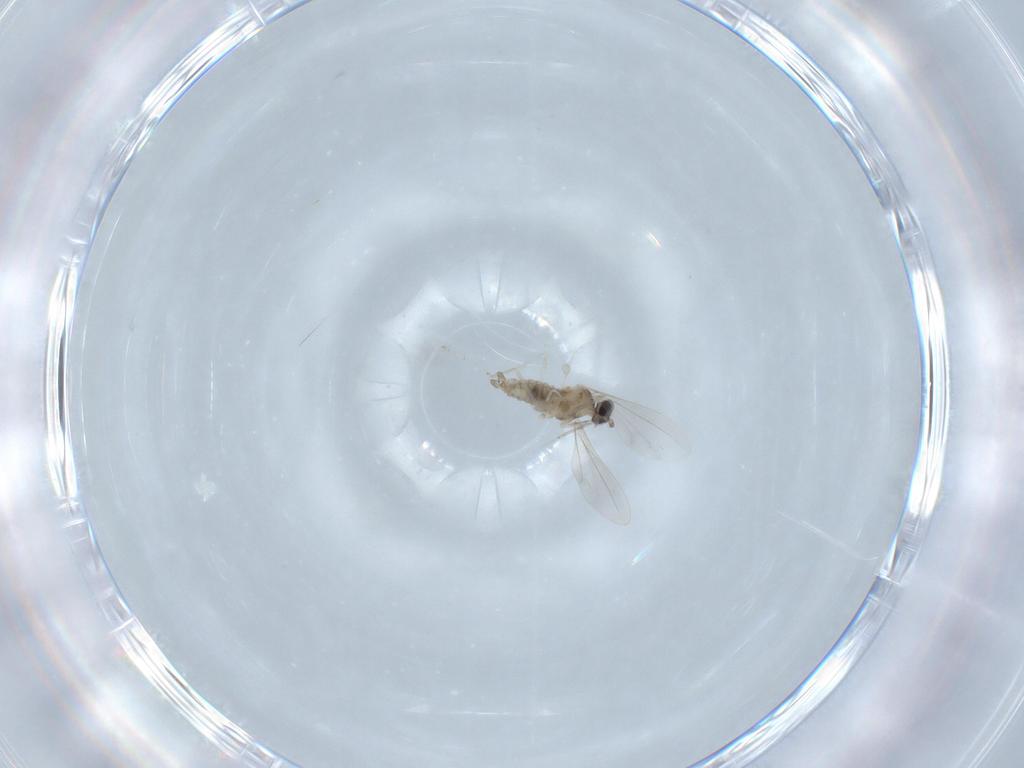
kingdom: Animalia
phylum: Arthropoda
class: Insecta
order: Diptera
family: Cecidomyiidae
